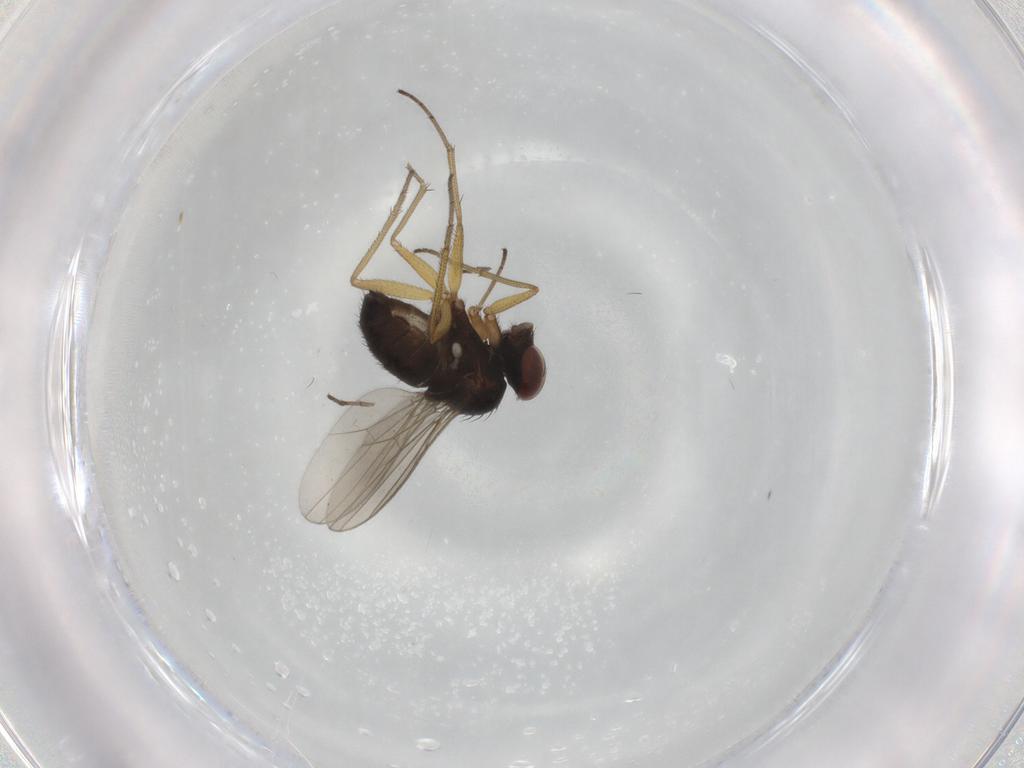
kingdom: Animalia
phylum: Arthropoda
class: Insecta
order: Diptera
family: Dolichopodidae
